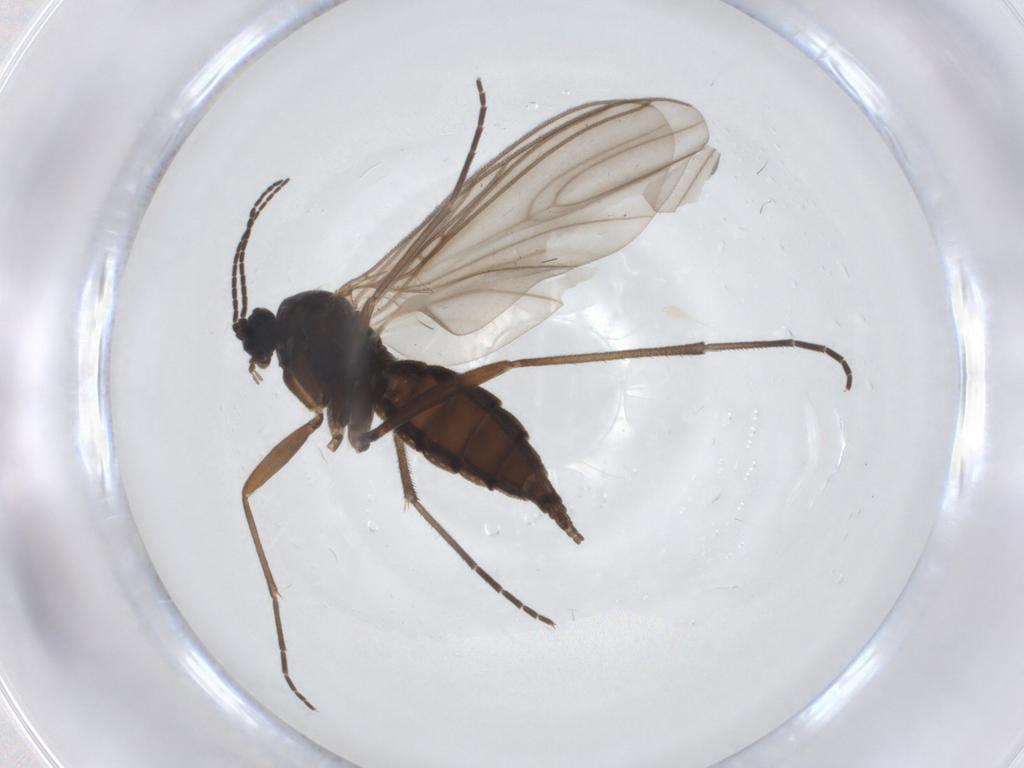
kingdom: Animalia
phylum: Arthropoda
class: Insecta
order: Diptera
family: Sciaridae
